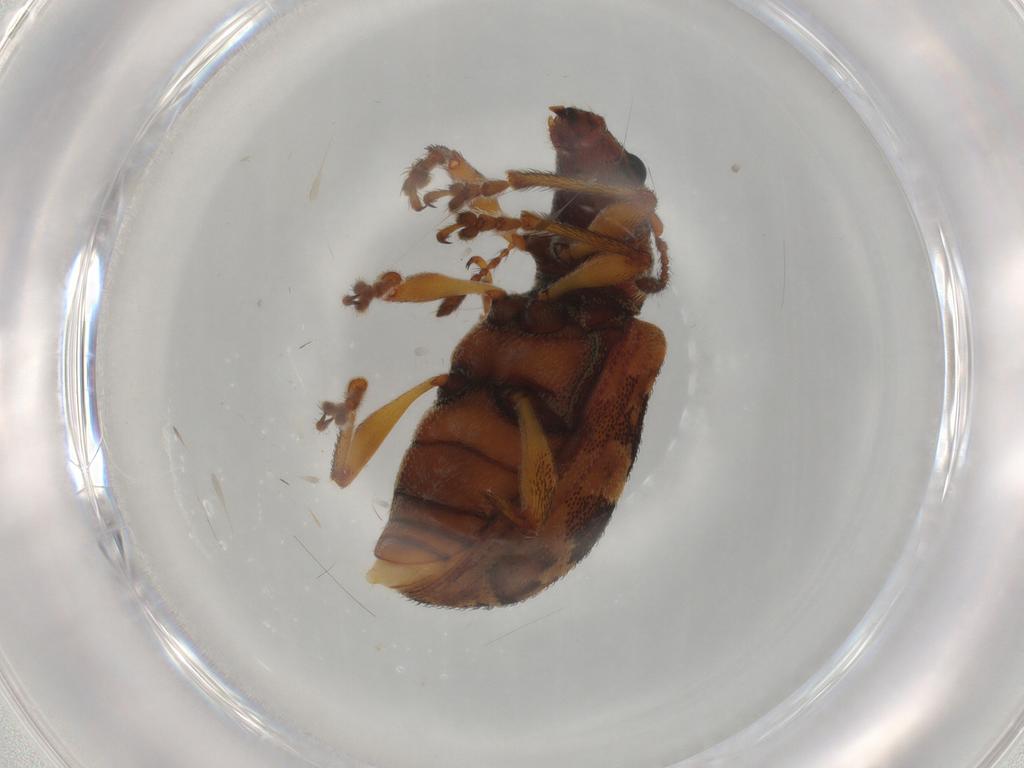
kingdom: Animalia
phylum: Arthropoda
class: Insecta
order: Coleoptera
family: Curculionidae
